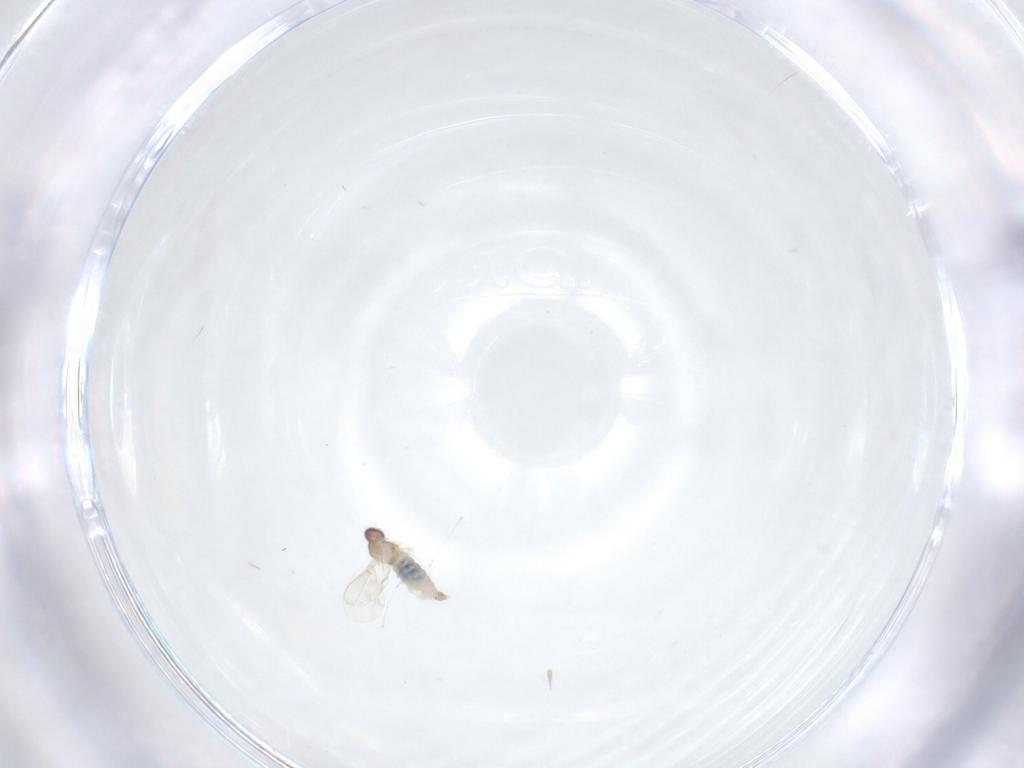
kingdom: Animalia
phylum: Arthropoda
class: Insecta
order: Diptera
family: Cecidomyiidae
